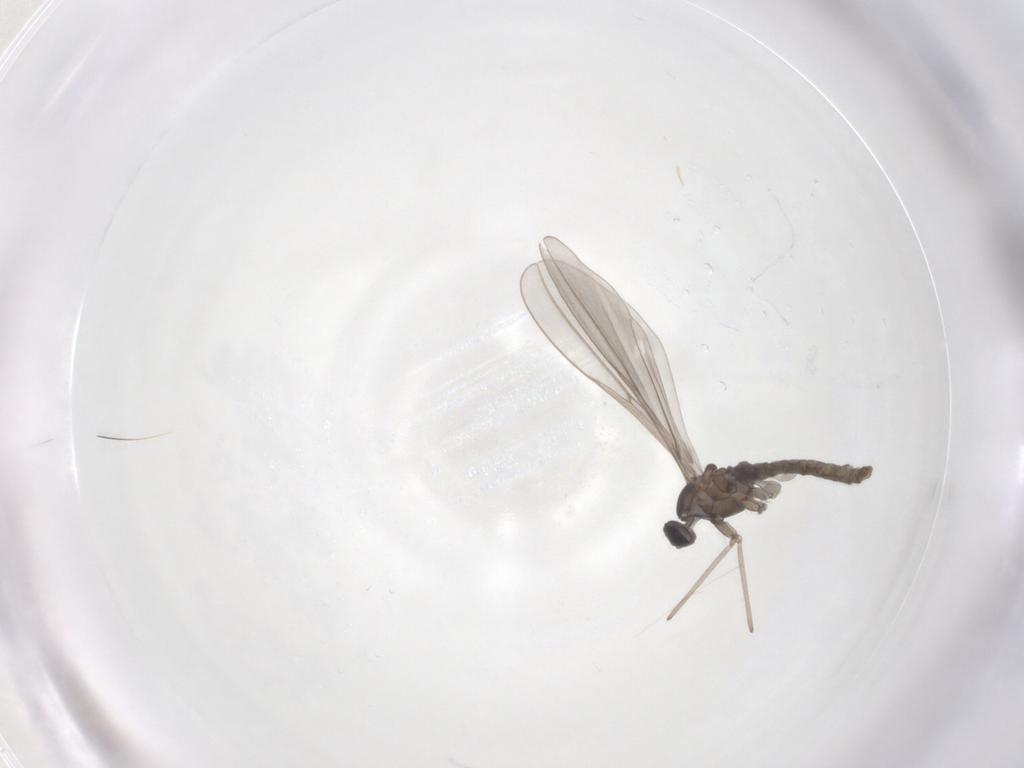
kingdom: Animalia
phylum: Arthropoda
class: Insecta
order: Diptera
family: Cecidomyiidae
